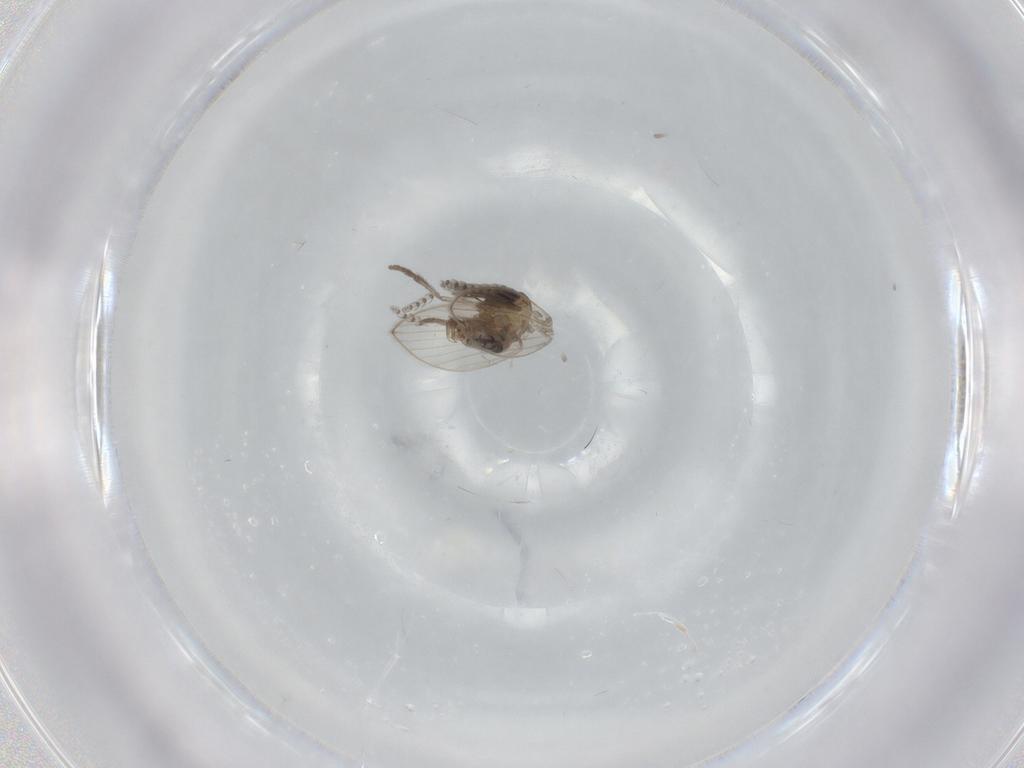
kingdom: Animalia
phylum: Arthropoda
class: Insecta
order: Diptera
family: Psychodidae
